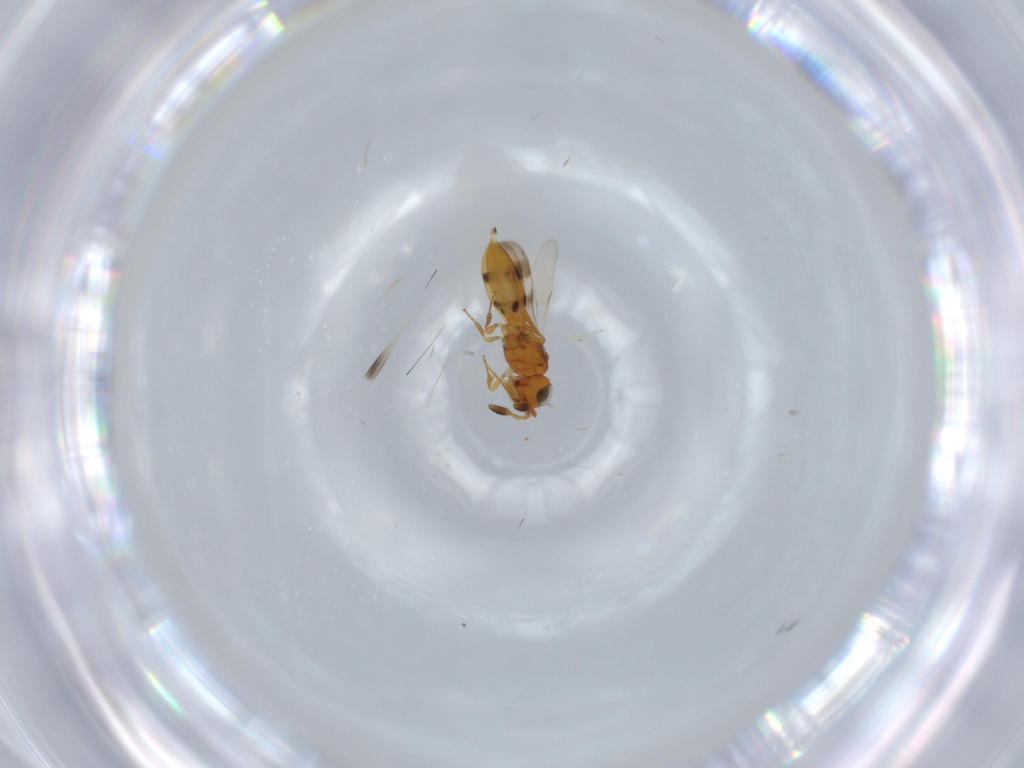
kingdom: Animalia
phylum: Arthropoda
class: Insecta
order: Hymenoptera
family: Scelionidae
